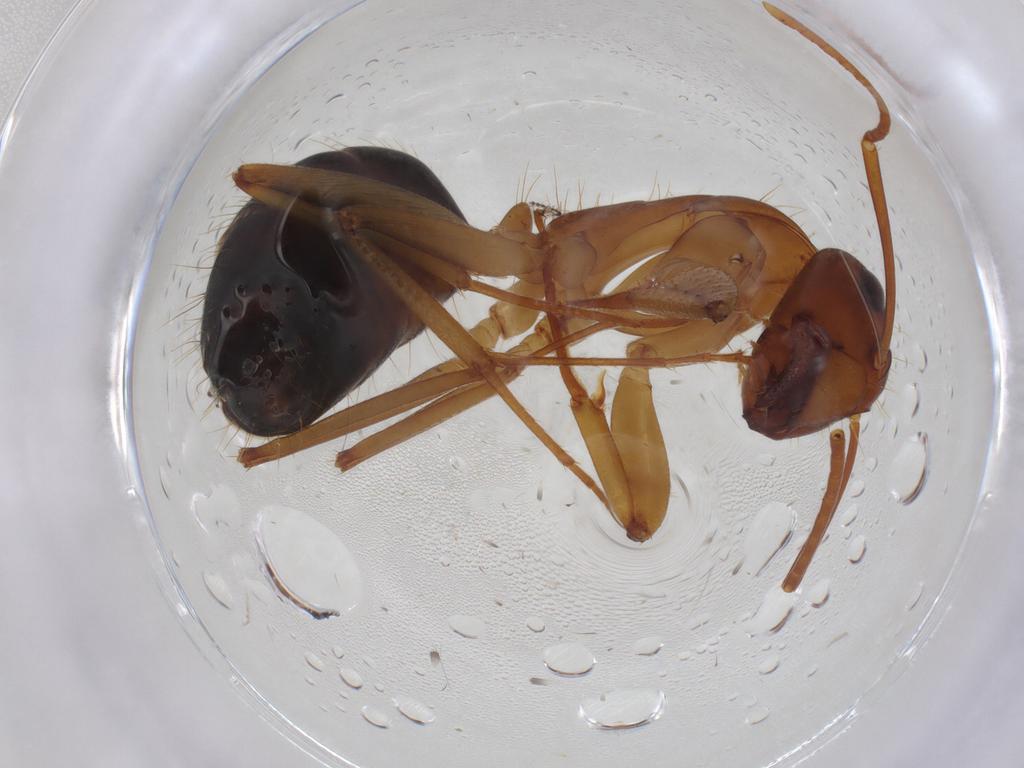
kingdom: Animalia
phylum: Arthropoda
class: Insecta
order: Hymenoptera
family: Formicidae
